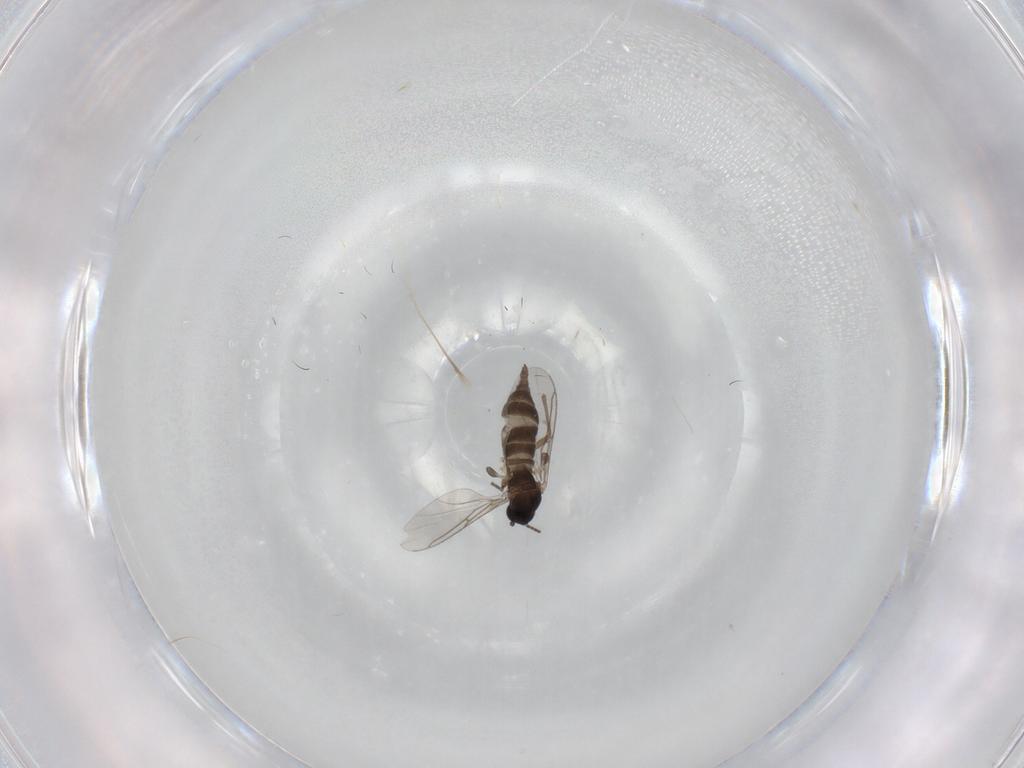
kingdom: Animalia
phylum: Arthropoda
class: Insecta
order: Diptera
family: Sciaridae
